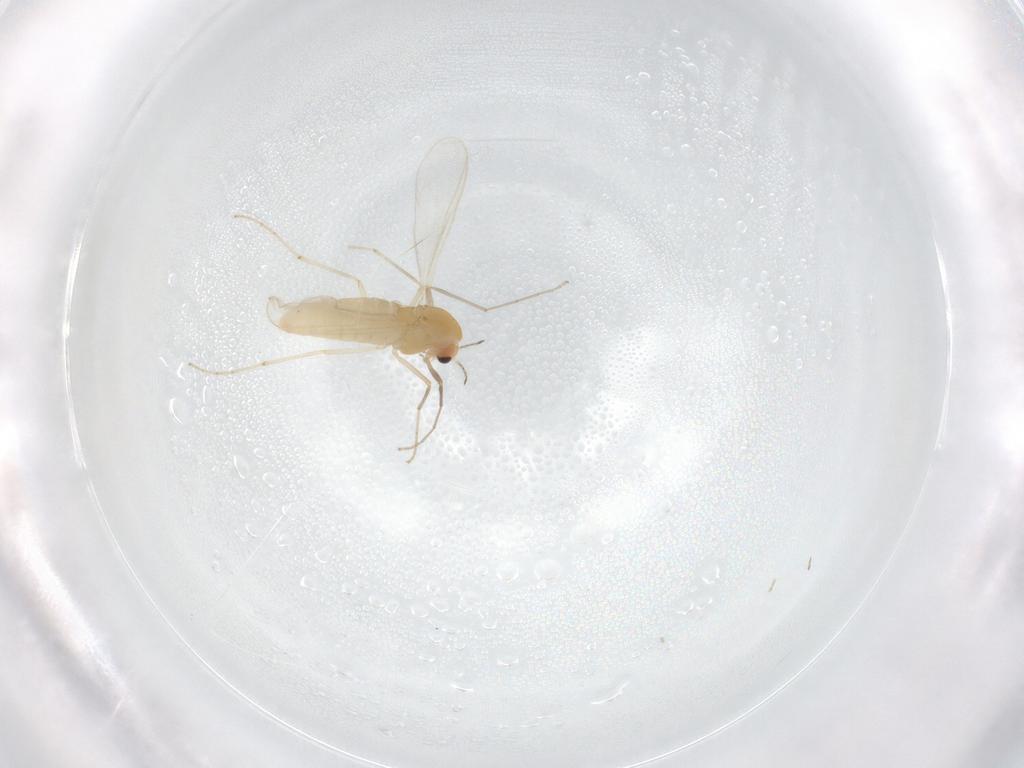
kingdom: Animalia
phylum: Arthropoda
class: Insecta
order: Diptera
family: Chironomidae
